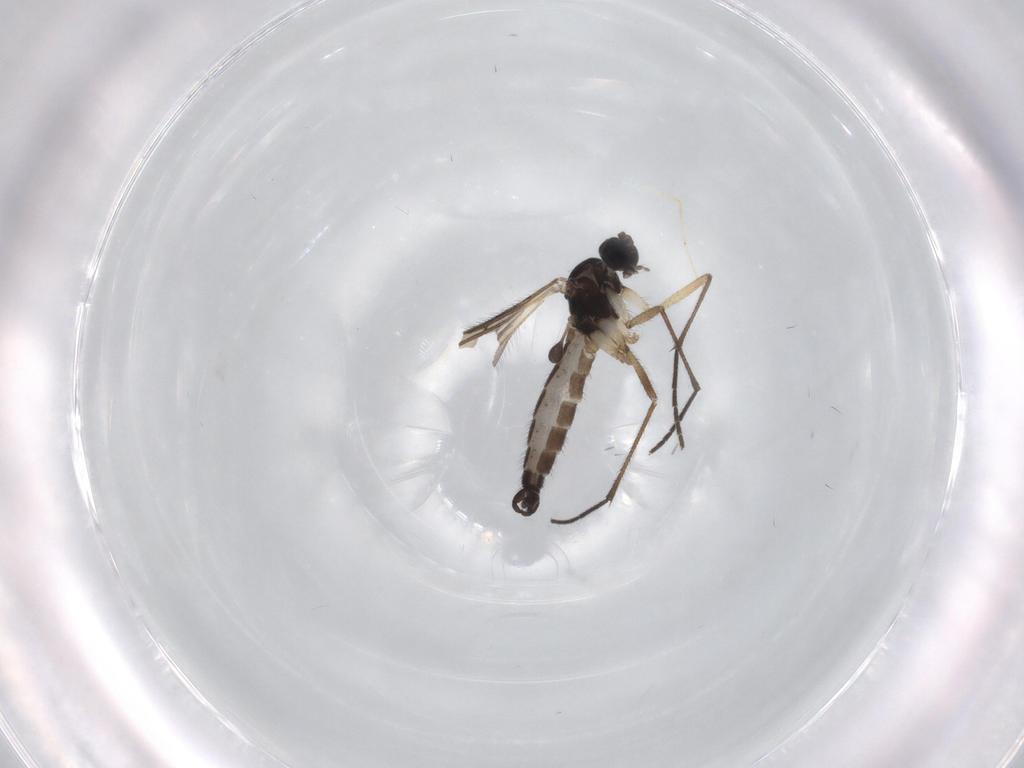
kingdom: Animalia
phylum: Arthropoda
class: Insecta
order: Diptera
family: Sciaridae
